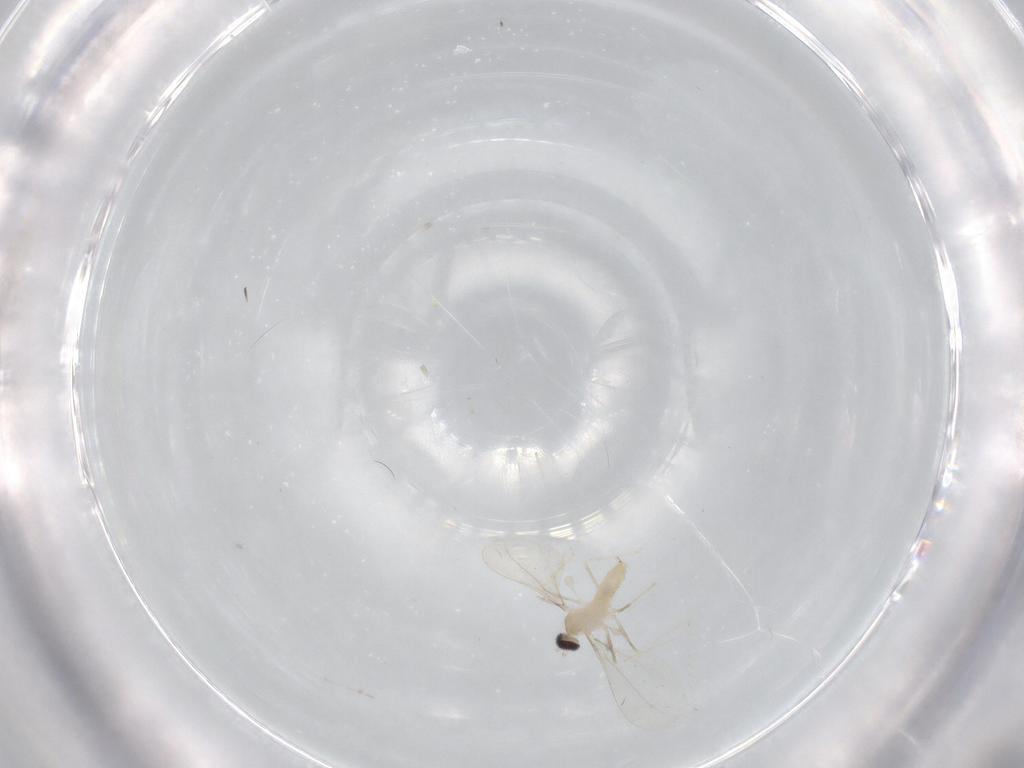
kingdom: Animalia
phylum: Arthropoda
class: Insecta
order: Diptera
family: Cecidomyiidae
